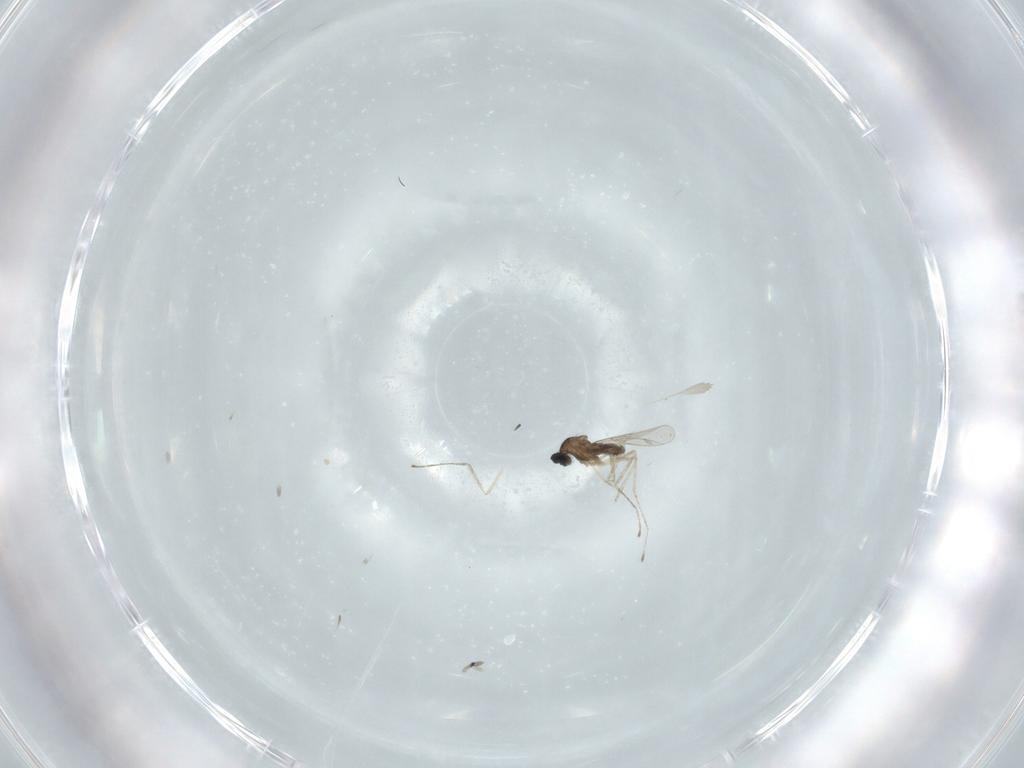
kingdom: Animalia
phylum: Arthropoda
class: Insecta
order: Diptera
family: Cecidomyiidae
